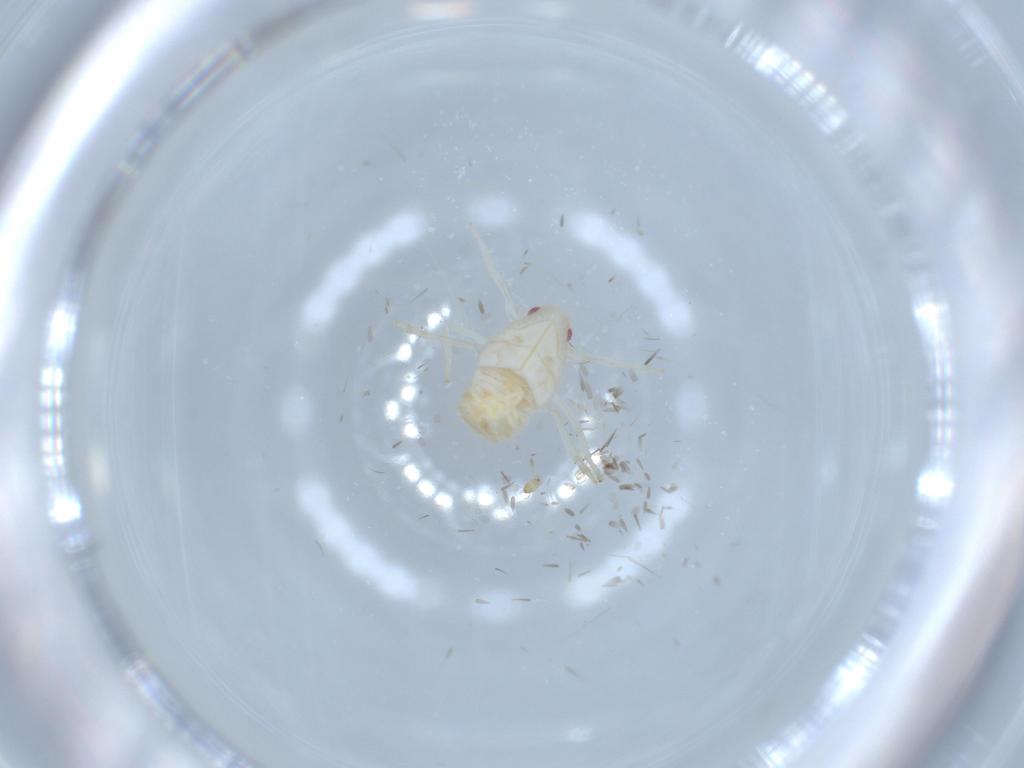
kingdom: Animalia
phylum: Arthropoda
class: Insecta
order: Hemiptera
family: Flatidae
